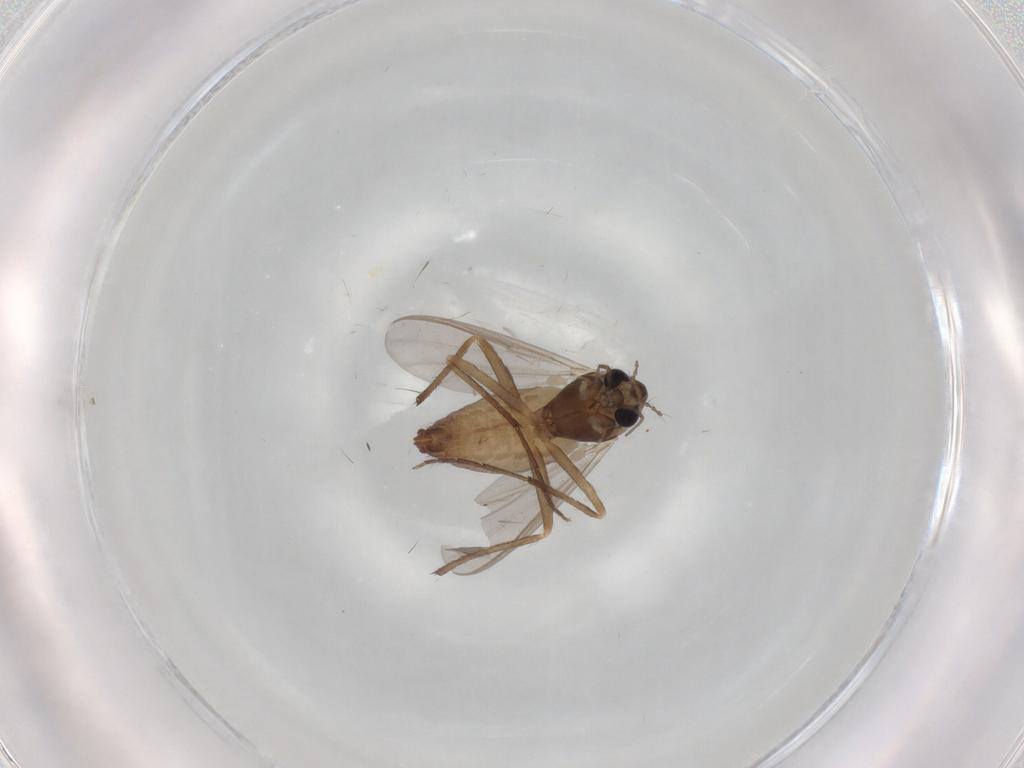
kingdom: Animalia
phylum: Arthropoda
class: Insecta
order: Diptera
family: Chironomidae
